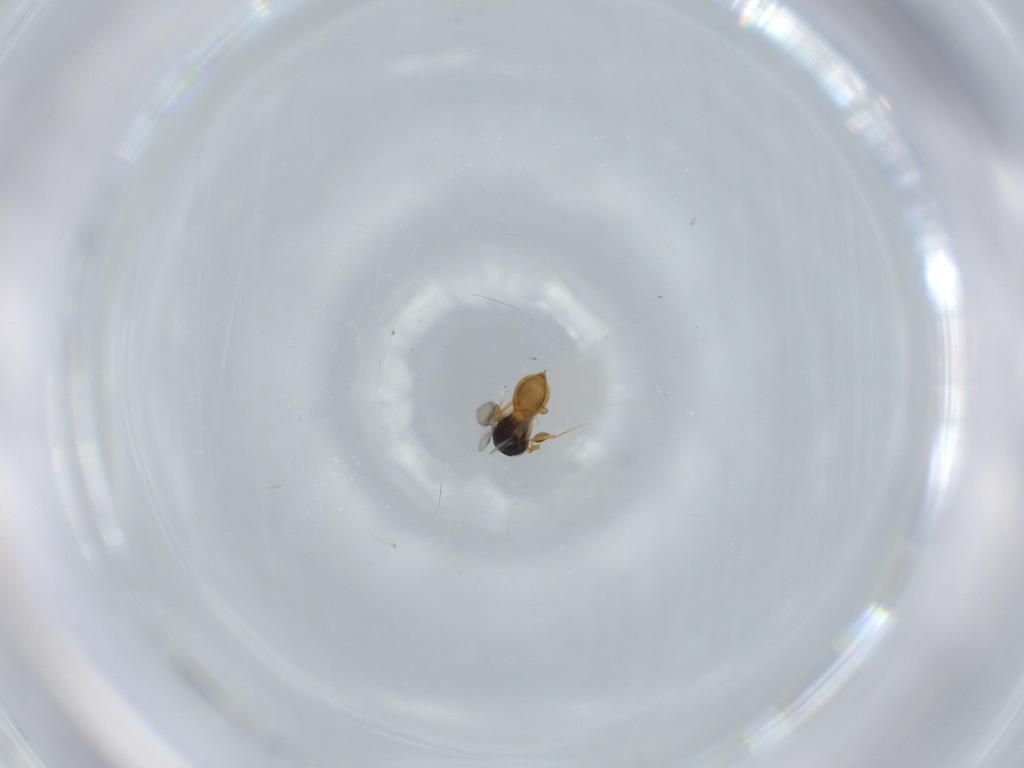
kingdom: Animalia
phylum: Arthropoda
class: Insecta
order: Hymenoptera
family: Scelionidae
